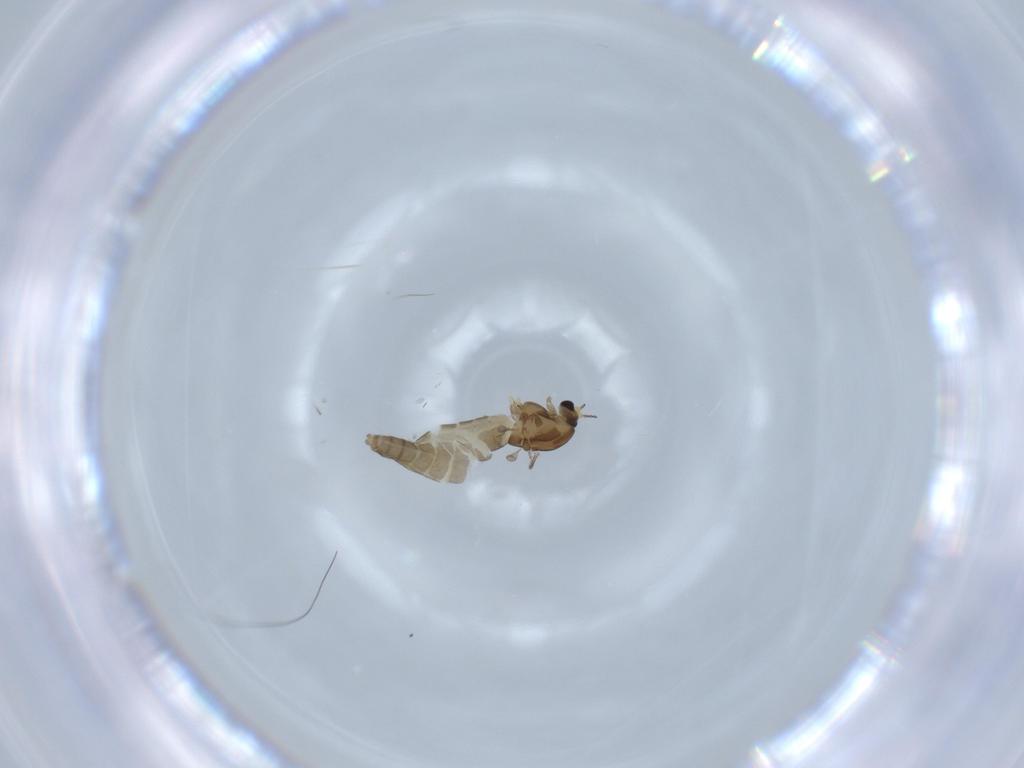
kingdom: Animalia
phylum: Arthropoda
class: Insecta
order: Diptera
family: Chironomidae
